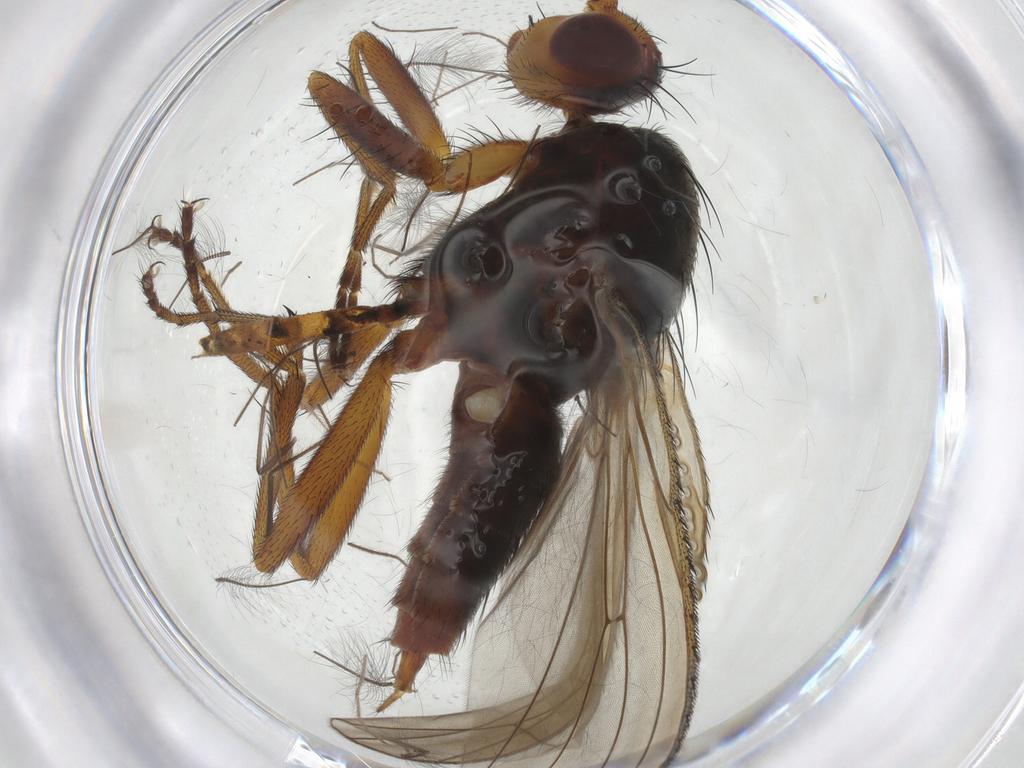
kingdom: Animalia
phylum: Arthropoda
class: Insecta
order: Diptera
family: Heleomyzidae
